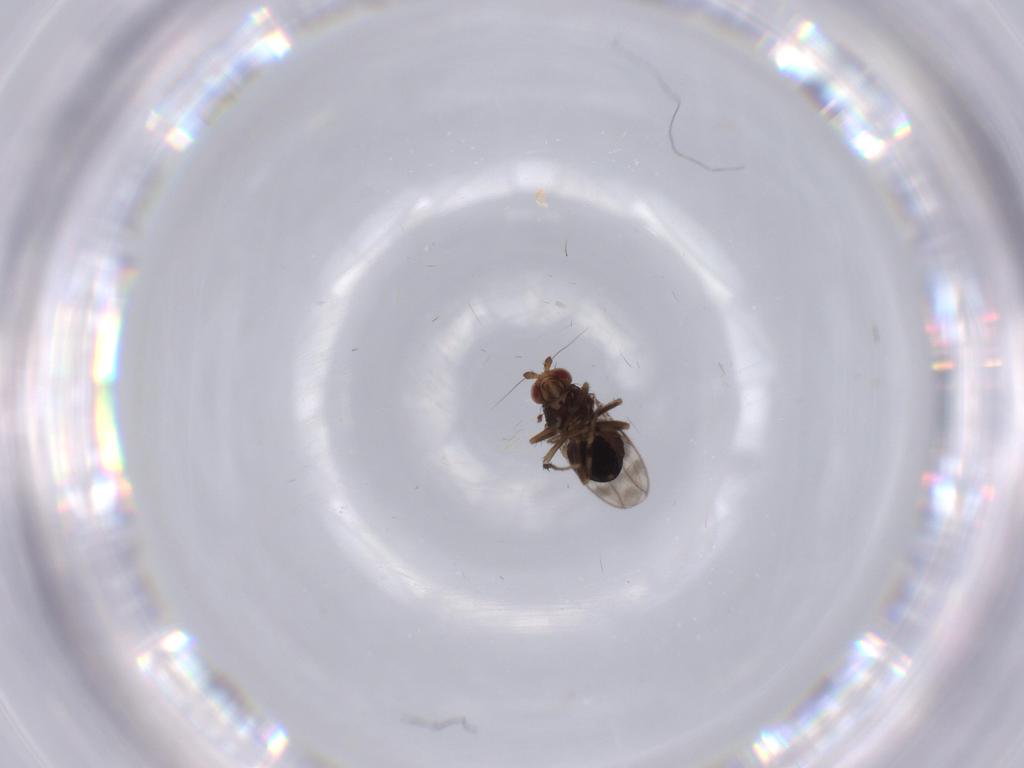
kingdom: Animalia
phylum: Arthropoda
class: Insecta
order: Diptera
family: Sphaeroceridae
